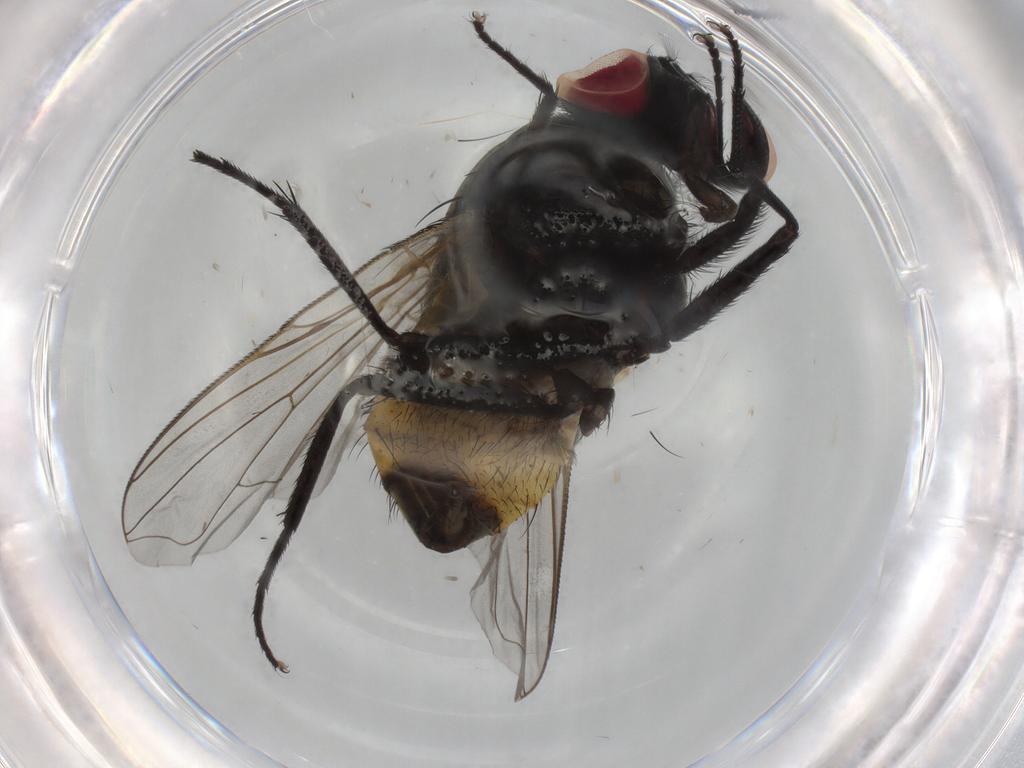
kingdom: Animalia
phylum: Arthropoda
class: Insecta
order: Diptera
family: Muscidae
